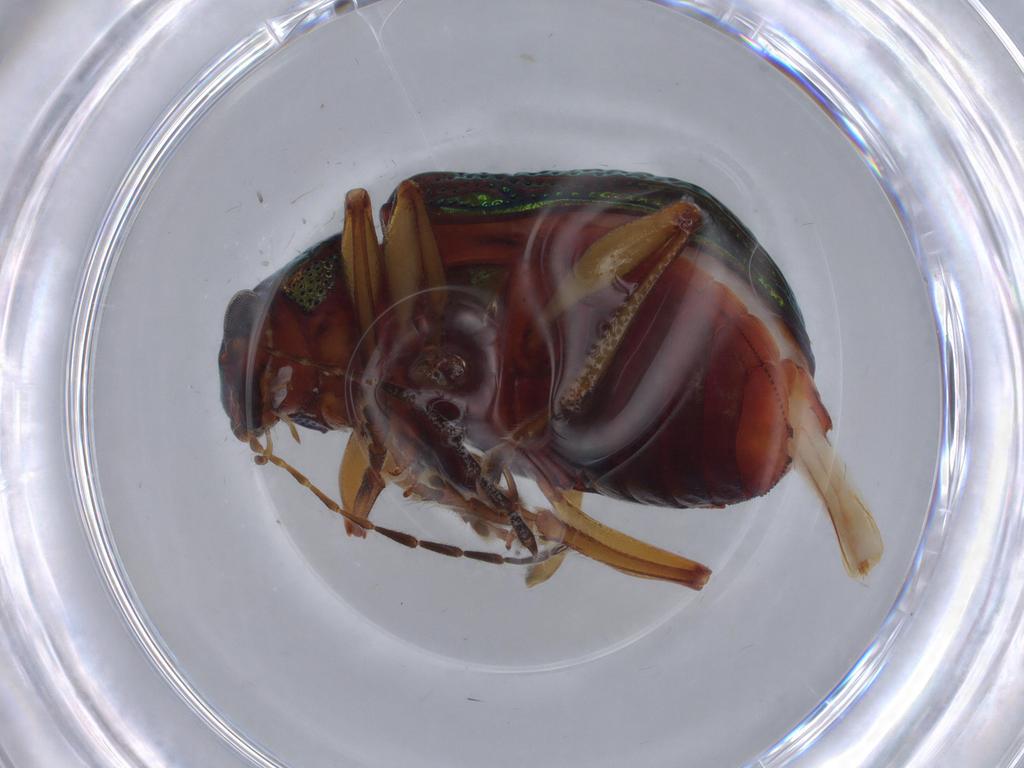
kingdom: Animalia
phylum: Arthropoda
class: Insecta
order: Coleoptera
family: Chrysomelidae
